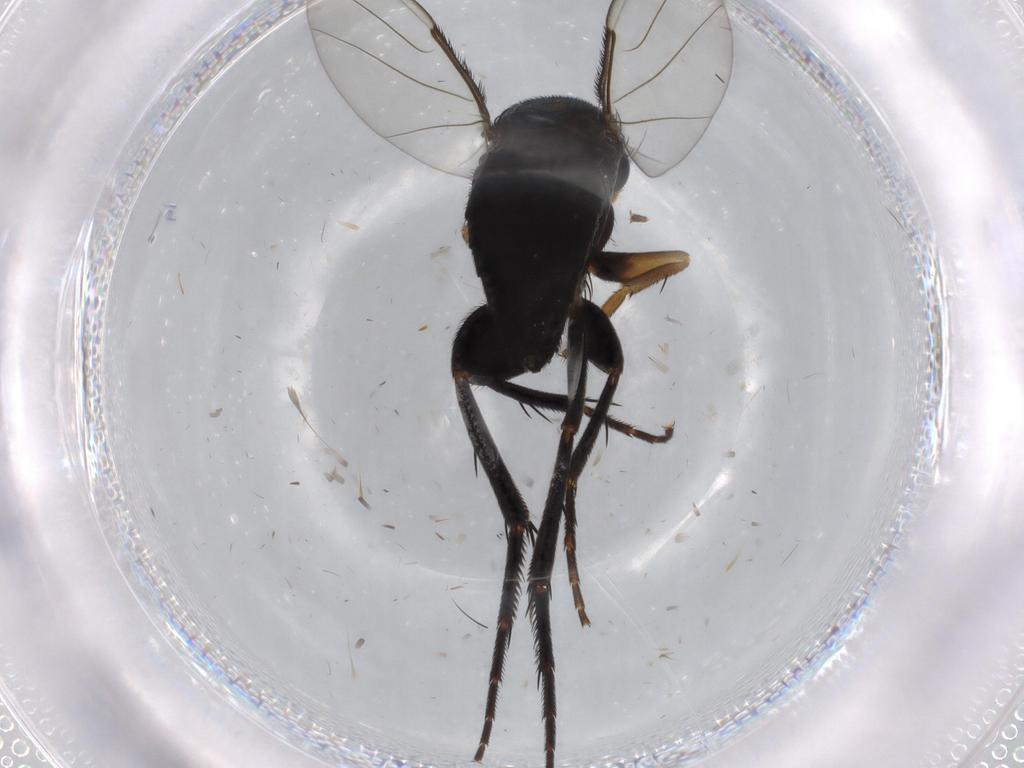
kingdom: Animalia
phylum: Arthropoda
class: Insecta
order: Diptera
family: Phoridae
